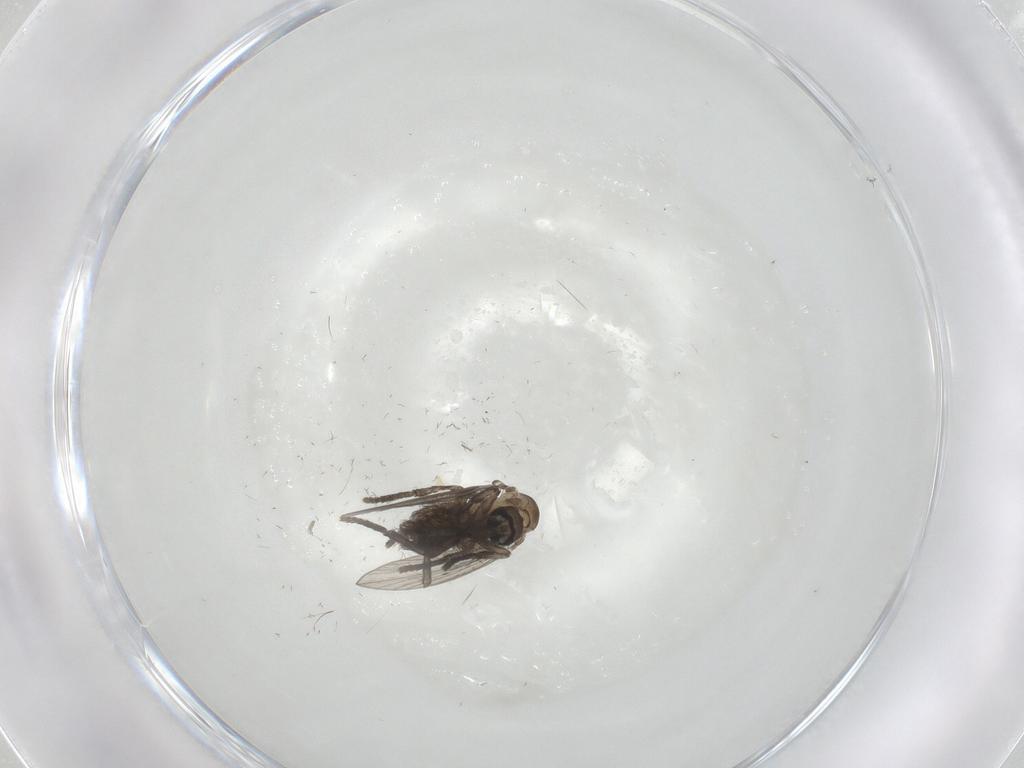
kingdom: Animalia
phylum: Arthropoda
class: Insecta
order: Diptera
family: Psychodidae
